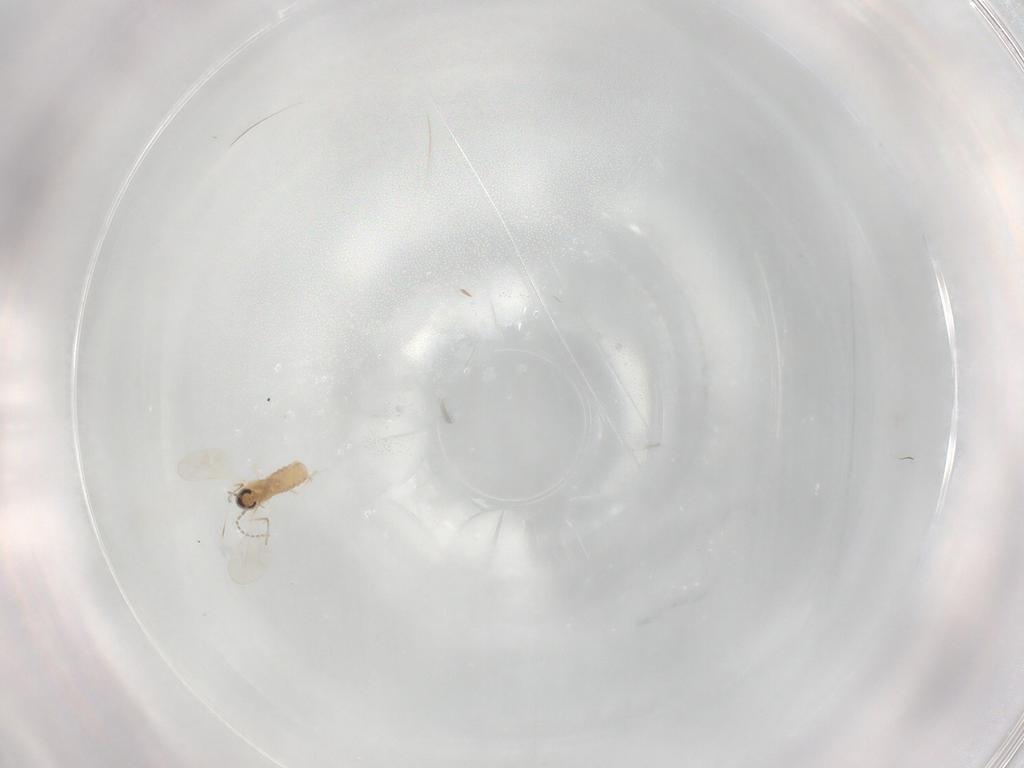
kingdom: Animalia
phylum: Arthropoda
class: Insecta
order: Diptera
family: Cecidomyiidae
